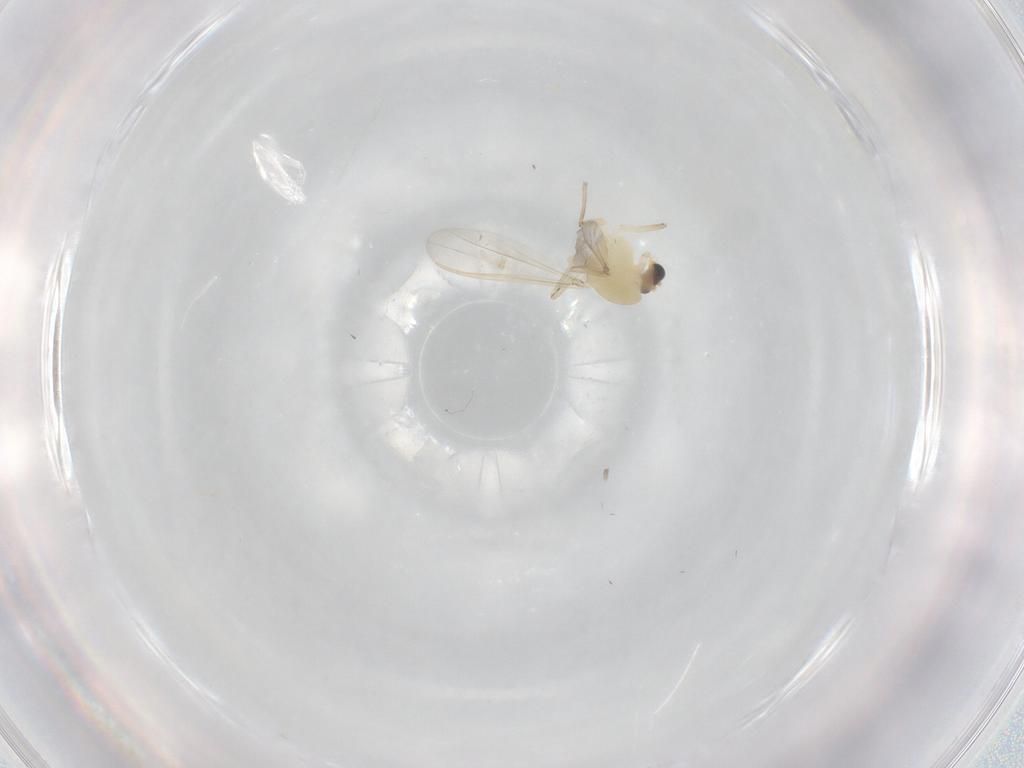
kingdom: Animalia
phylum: Arthropoda
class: Insecta
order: Diptera
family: Chironomidae
